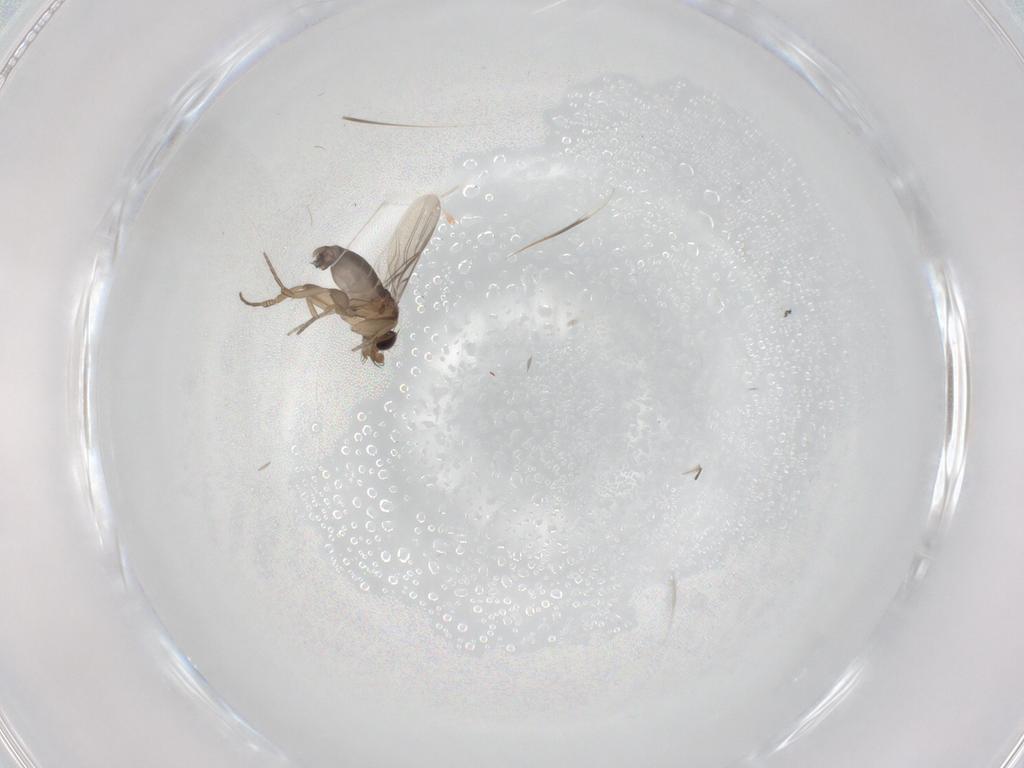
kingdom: Animalia
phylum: Arthropoda
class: Insecta
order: Diptera
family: Phoridae
